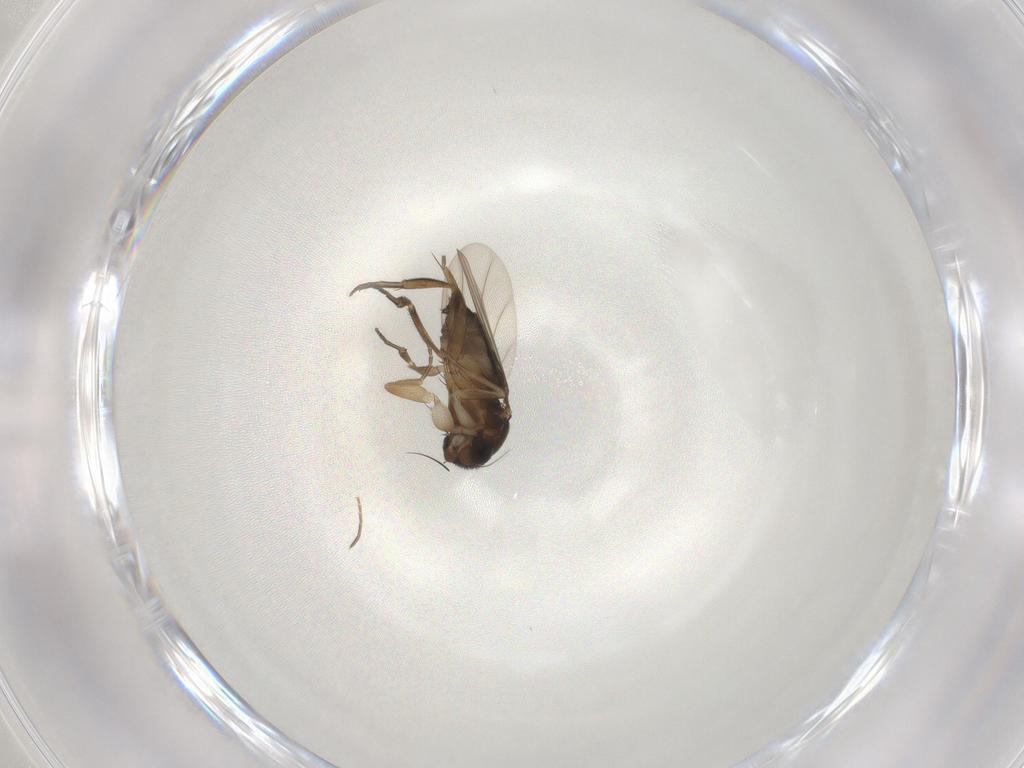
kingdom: Animalia
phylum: Arthropoda
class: Insecta
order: Diptera
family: Phoridae
